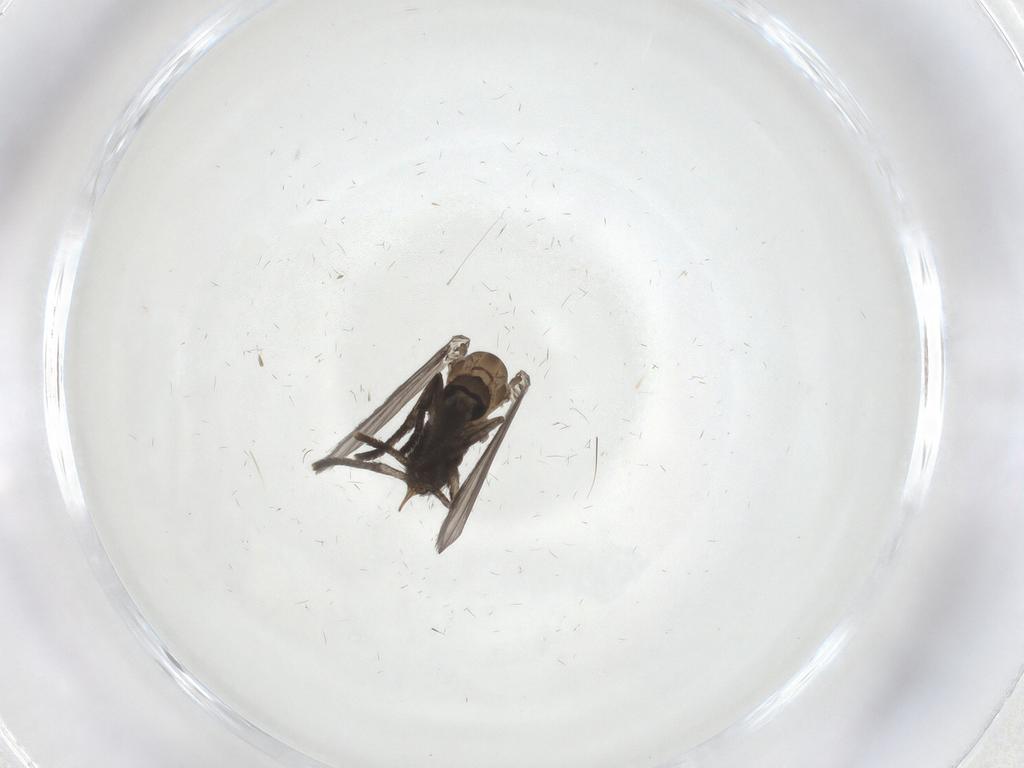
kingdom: Animalia
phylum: Arthropoda
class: Insecta
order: Diptera
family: Psychodidae
